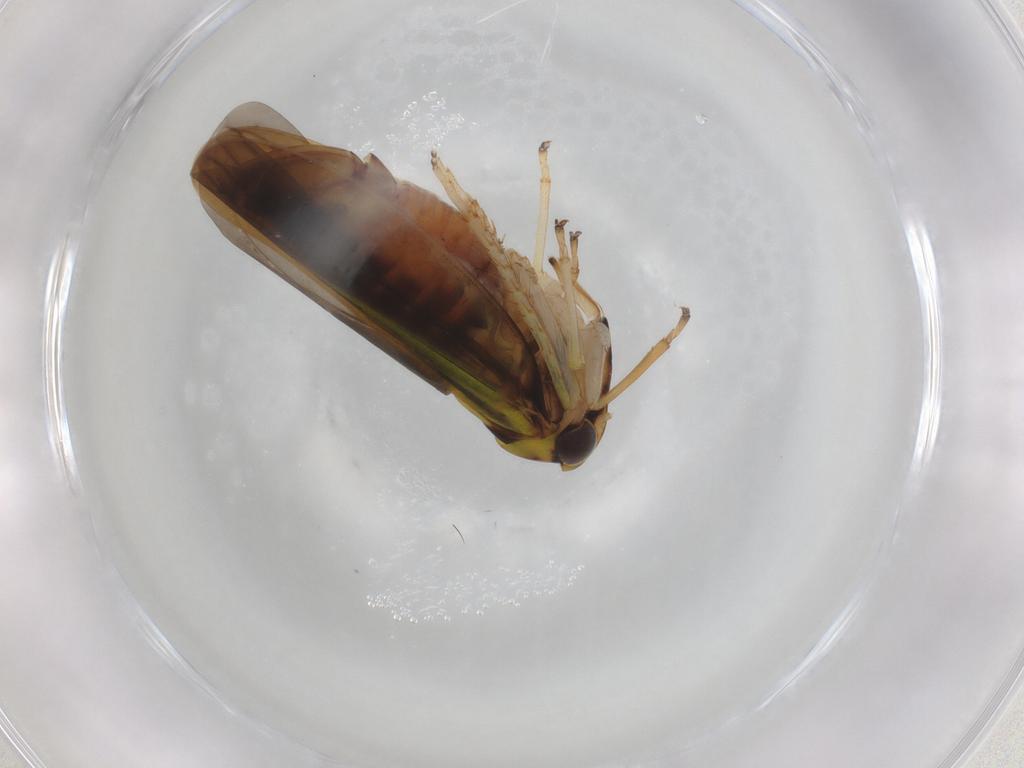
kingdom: Animalia
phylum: Arthropoda
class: Insecta
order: Hemiptera
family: Cicadellidae
